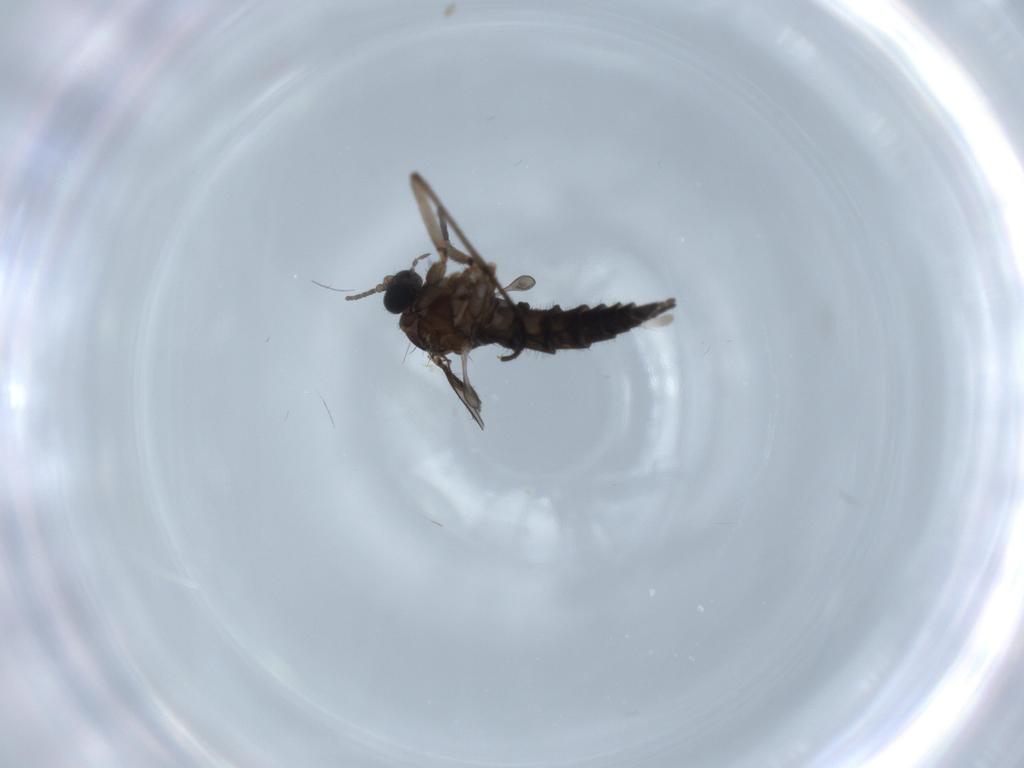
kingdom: Animalia
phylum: Arthropoda
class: Insecta
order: Diptera
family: Sciaridae
